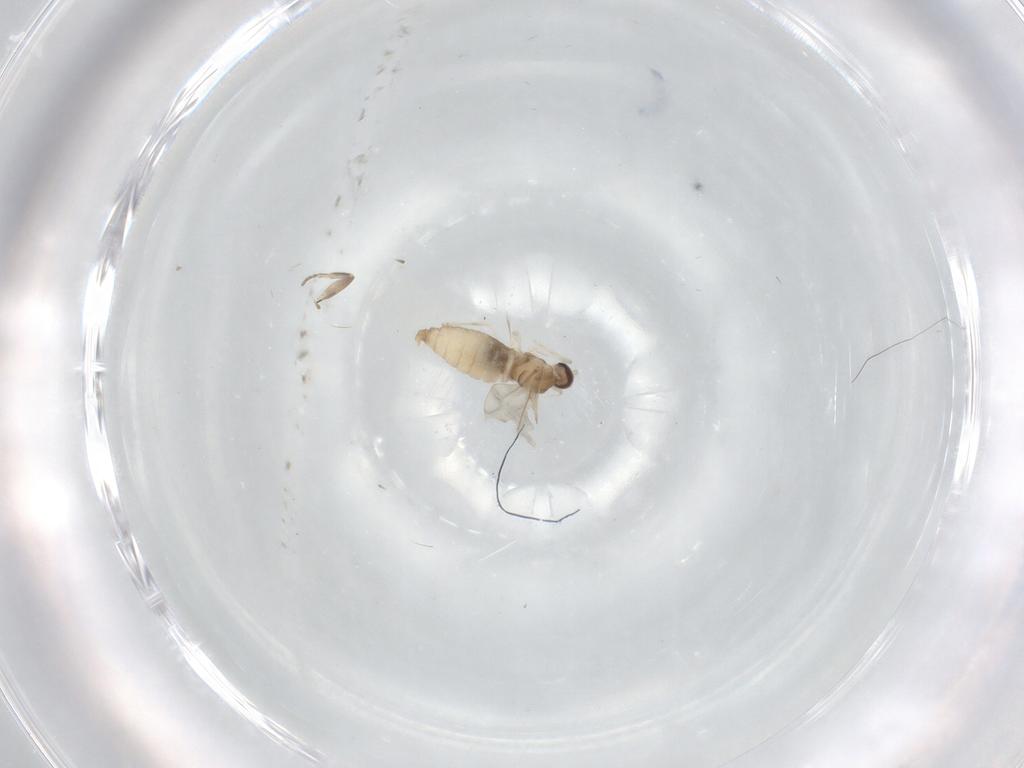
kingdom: Animalia
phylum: Arthropoda
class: Insecta
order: Diptera
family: Cecidomyiidae
